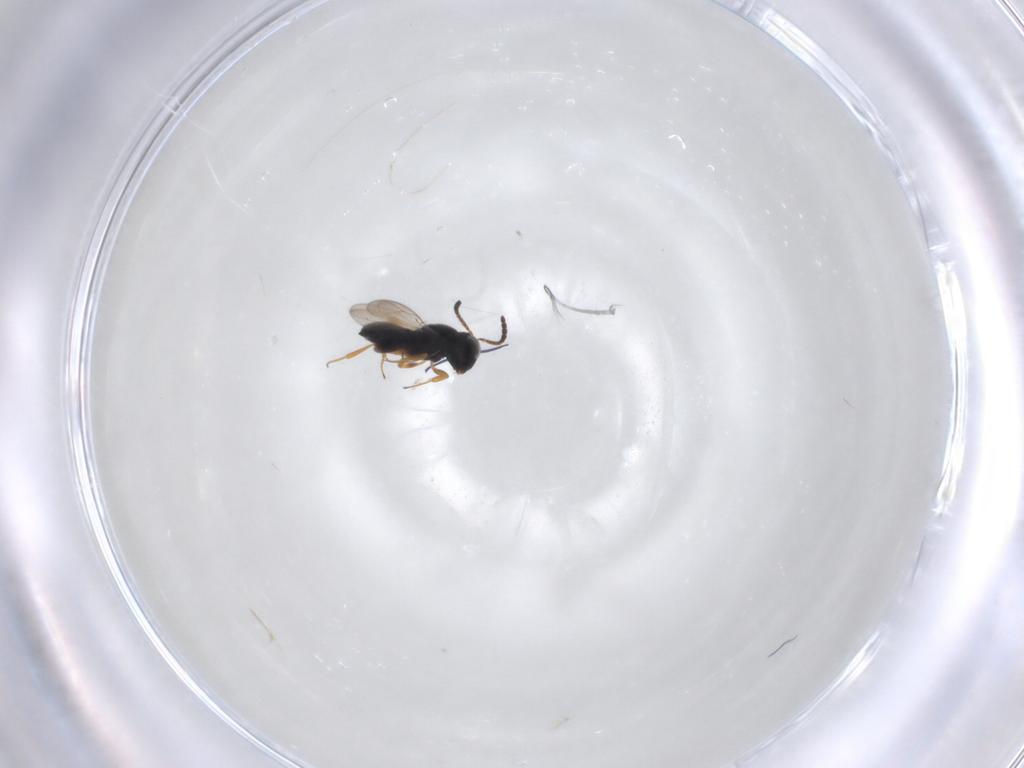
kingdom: Animalia
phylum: Arthropoda
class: Insecta
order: Hymenoptera
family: Scelionidae
